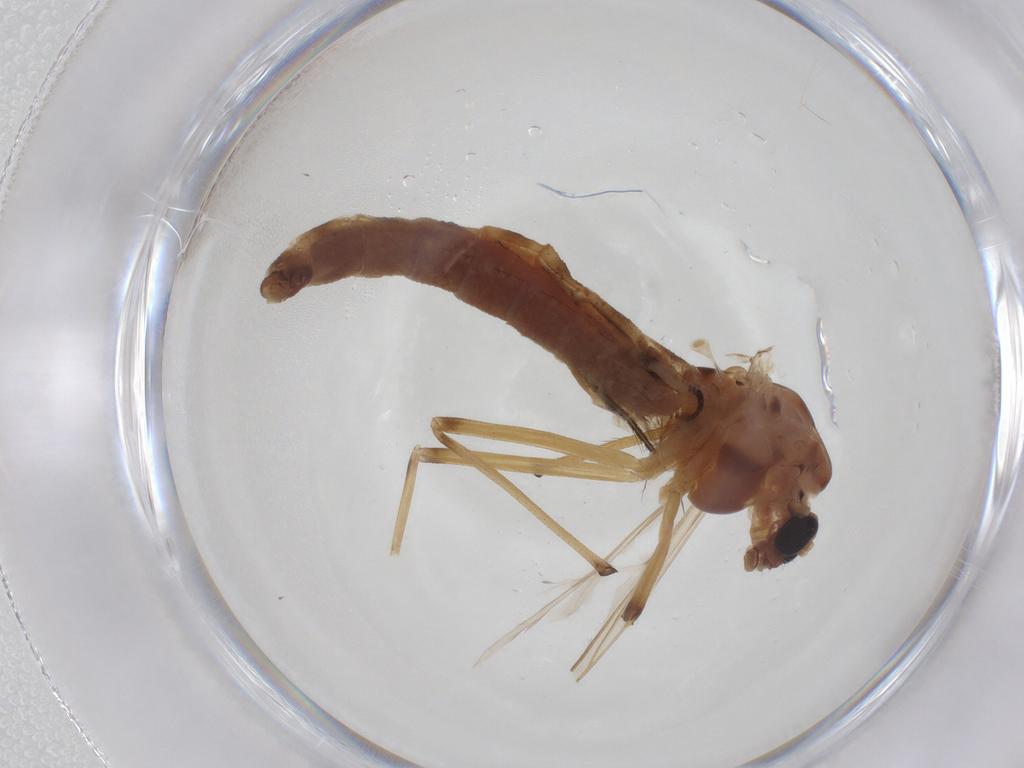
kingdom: Animalia
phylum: Arthropoda
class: Insecta
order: Diptera
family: Chironomidae
